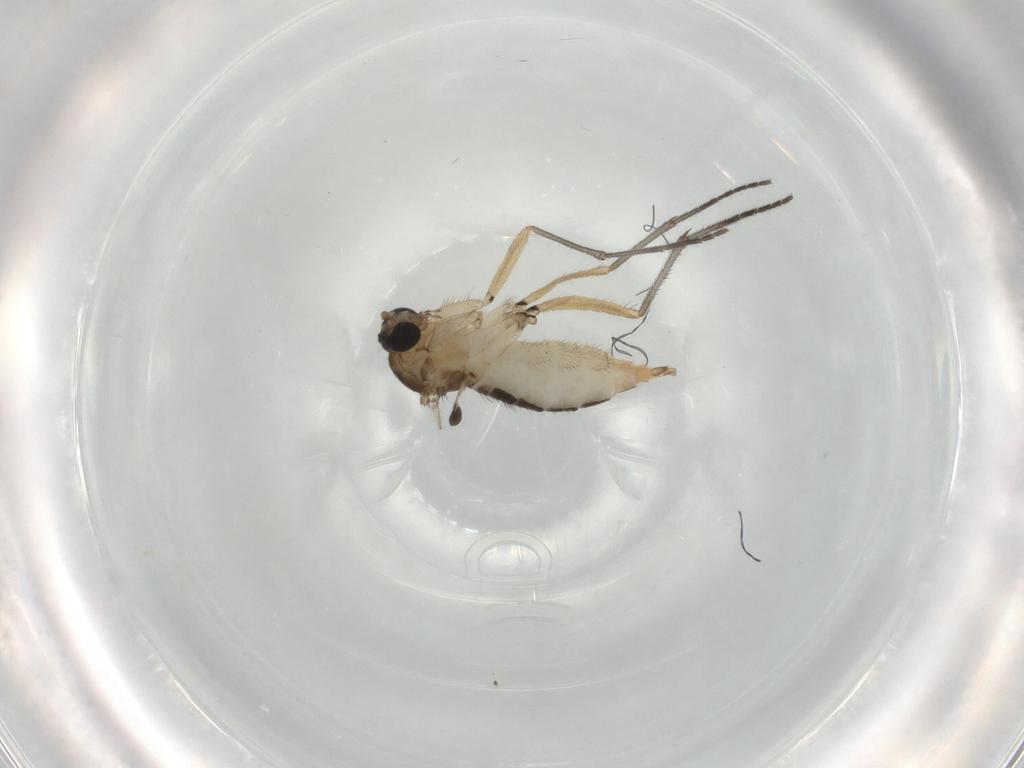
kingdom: Animalia
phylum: Arthropoda
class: Insecta
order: Diptera
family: Sciaridae
